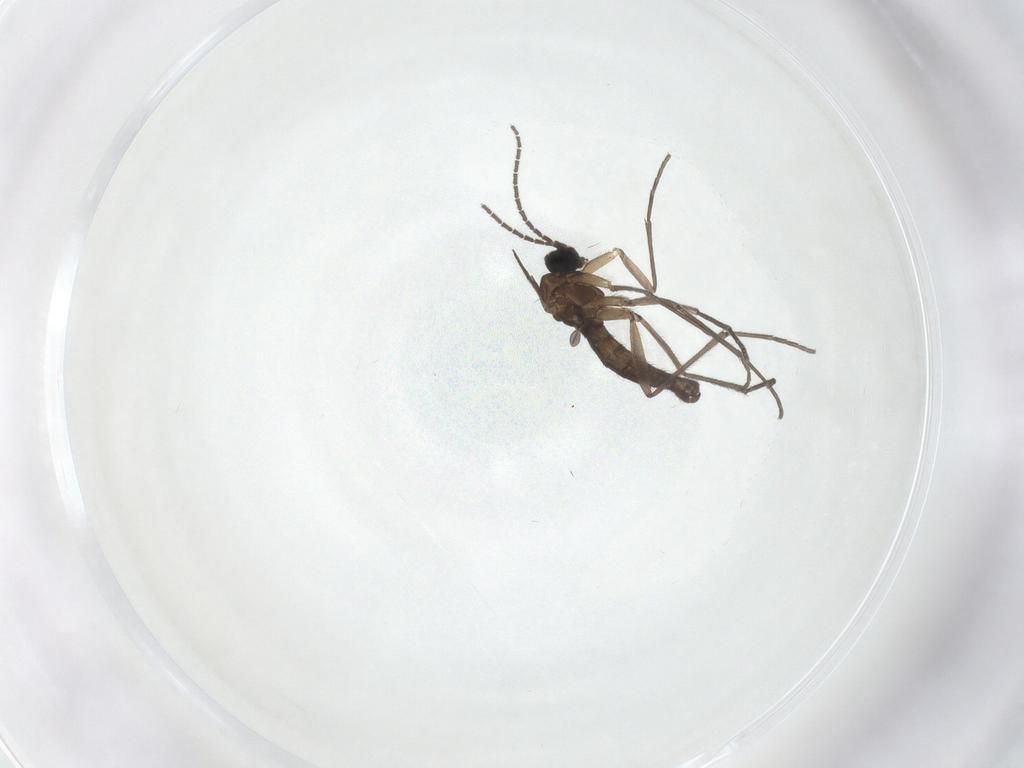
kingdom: Animalia
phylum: Arthropoda
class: Insecta
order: Diptera
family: Sciaridae
